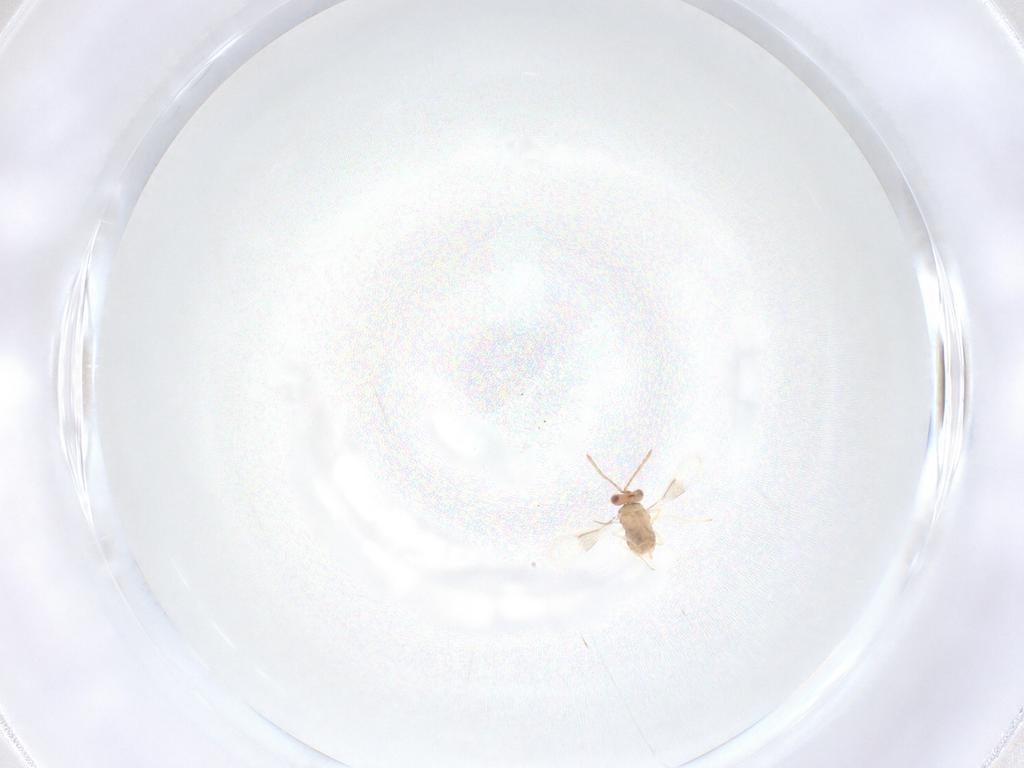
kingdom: Animalia
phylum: Arthropoda
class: Insecta
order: Hymenoptera
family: Aphelinidae
